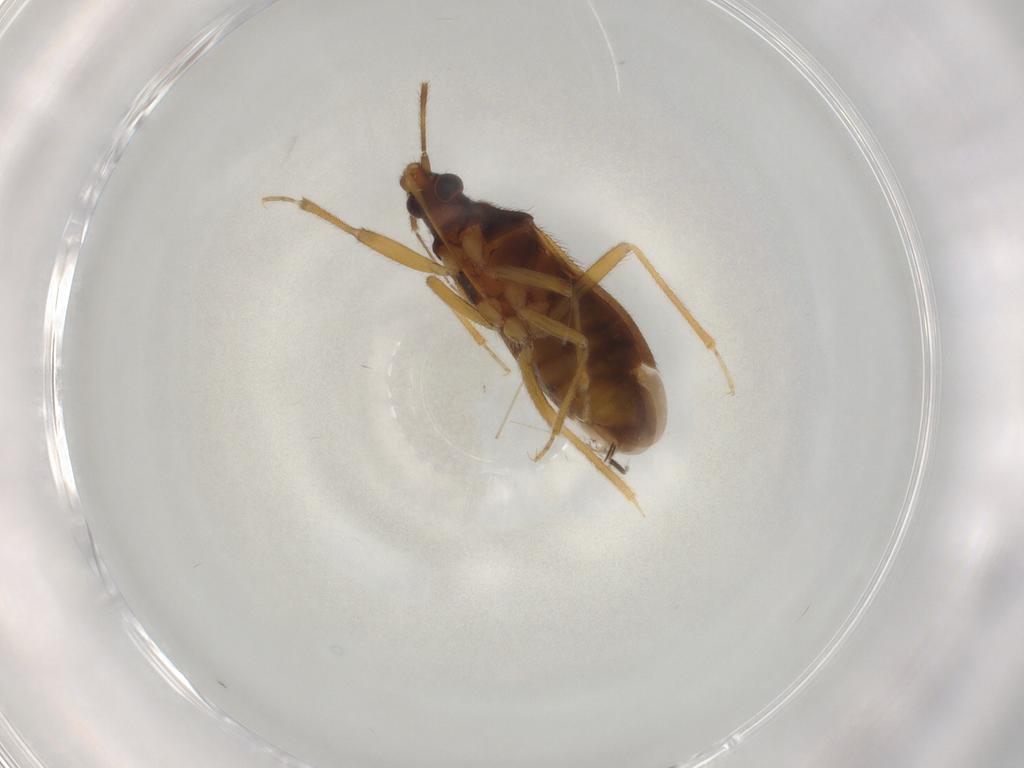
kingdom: Animalia
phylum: Arthropoda
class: Insecta
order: Hemiptera
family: Anthocoridae
